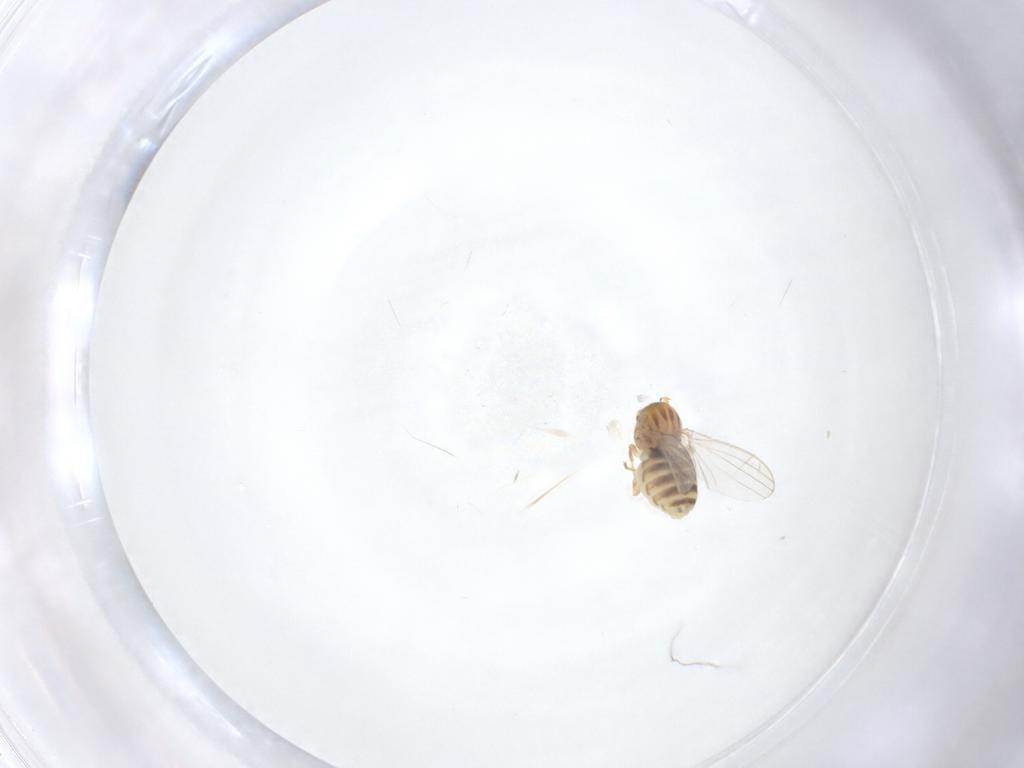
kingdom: Animalia
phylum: Arthropoda
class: Insecta
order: Diptera
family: Chyromyidae
